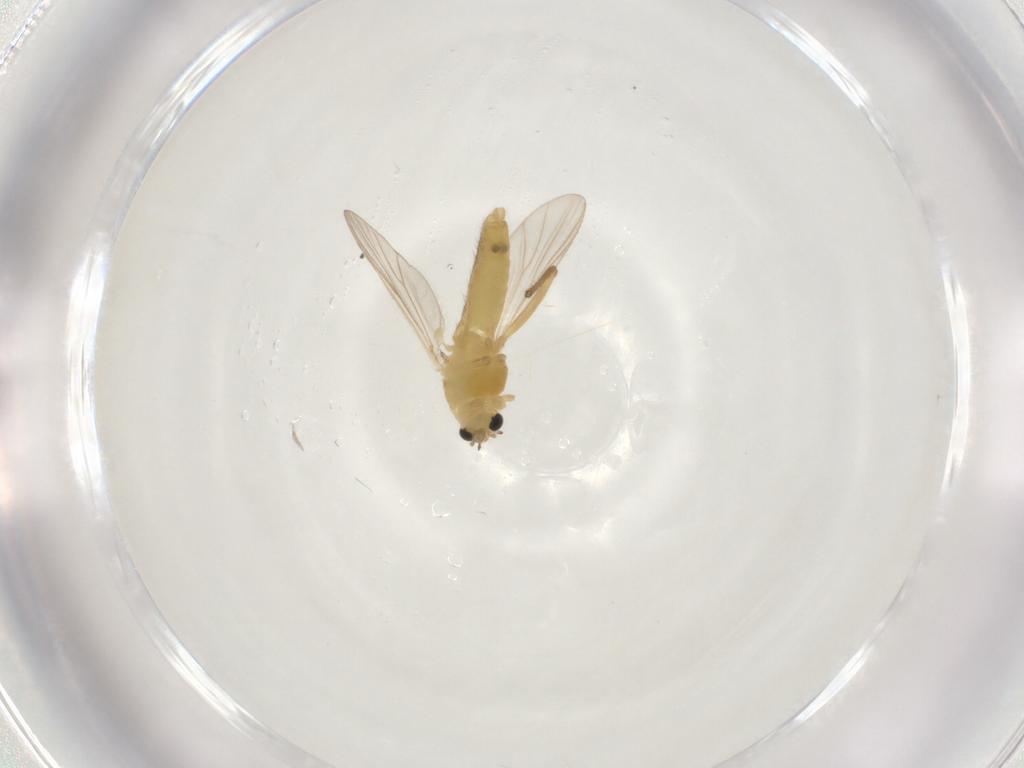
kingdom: Animalia
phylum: Arthropoda
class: Insecta
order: Diptera
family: Chironomidae
